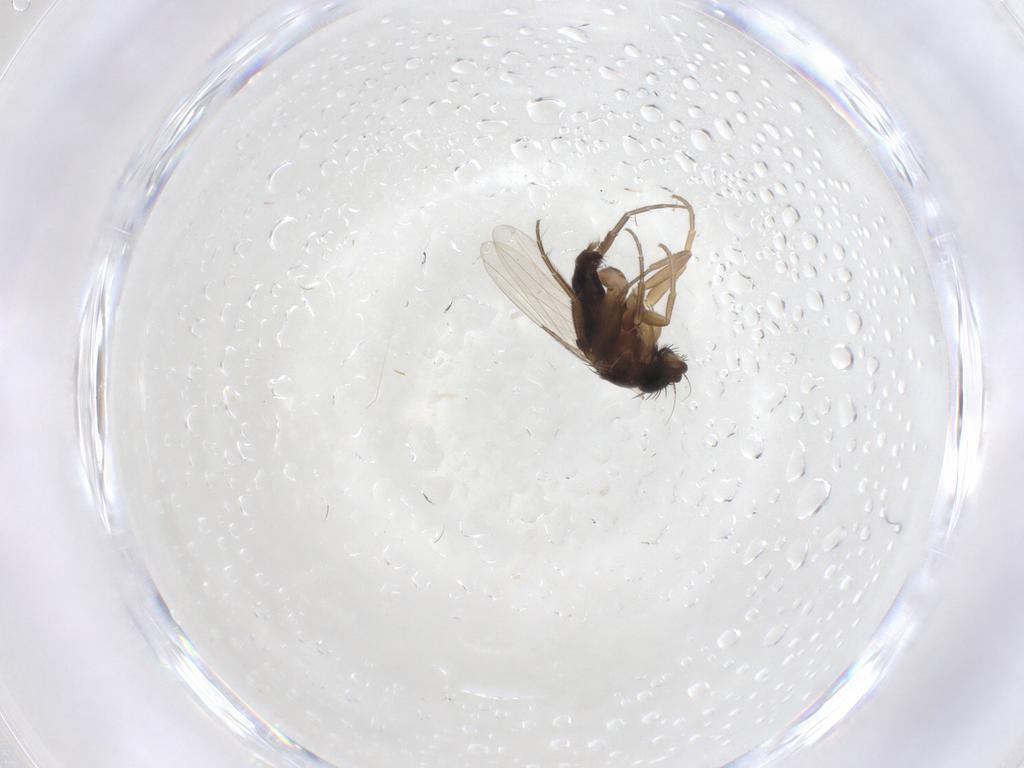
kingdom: Animalia
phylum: Arthropoda
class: Insecta
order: Diptera
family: Phoridae
